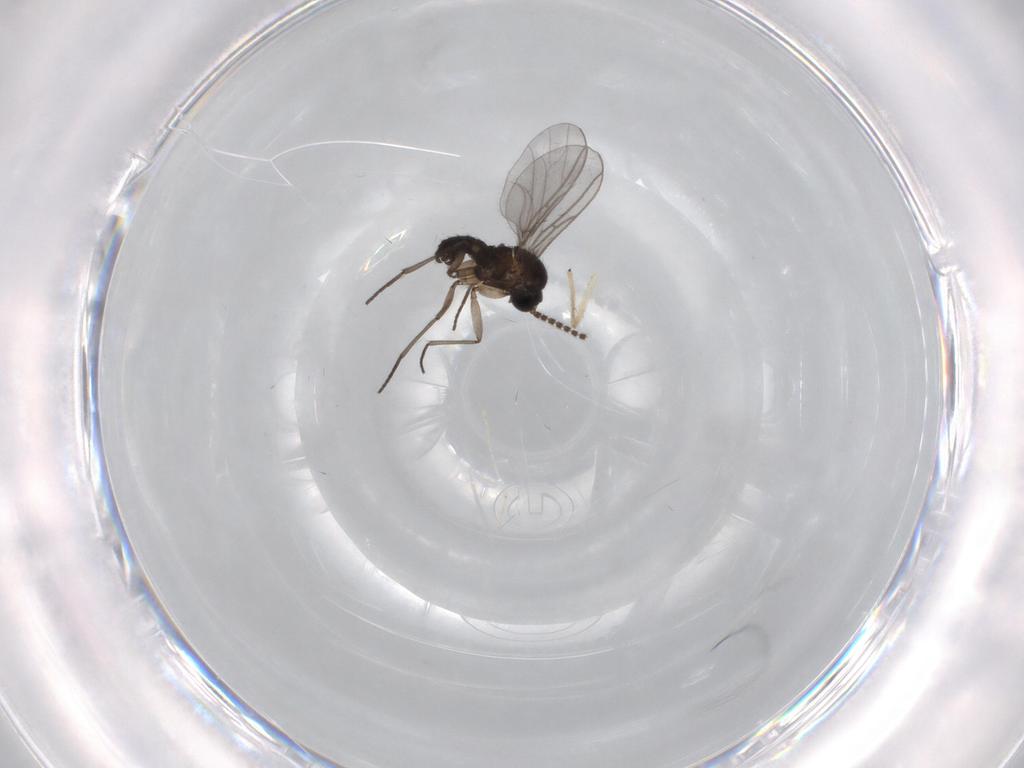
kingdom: Animalia
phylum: Arthropoda
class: Insecta
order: Diptera
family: Chironomidae
